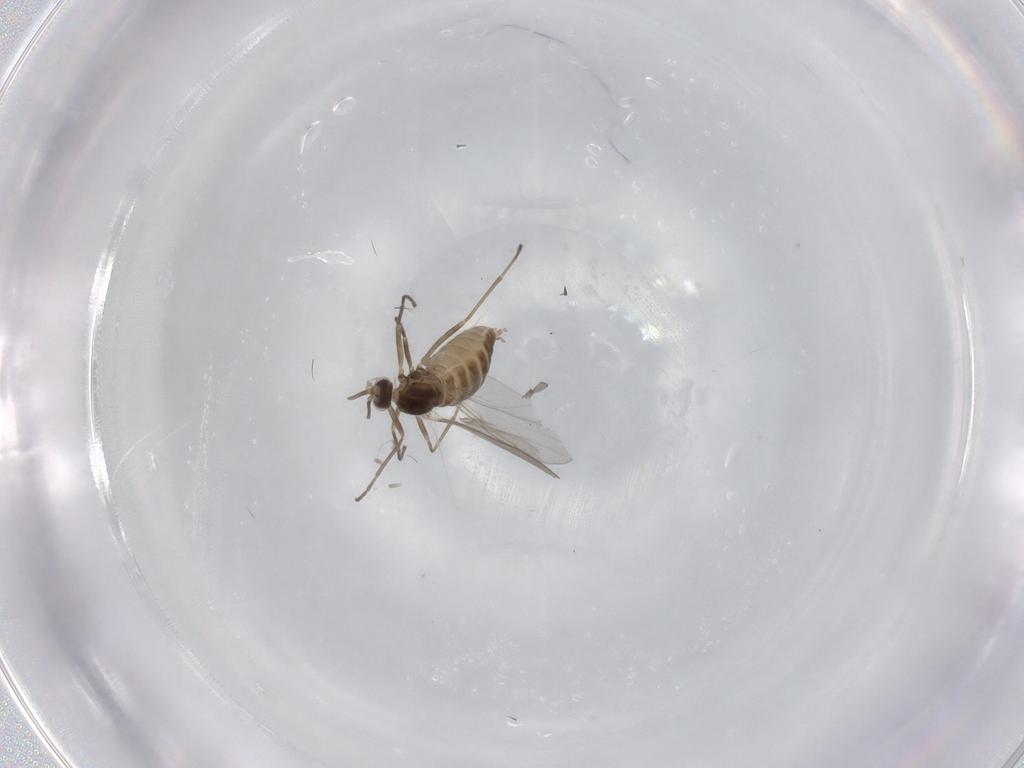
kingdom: Animalia
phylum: Arthropoda
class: Insecta
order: Diptera
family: Cecidomyiidae
